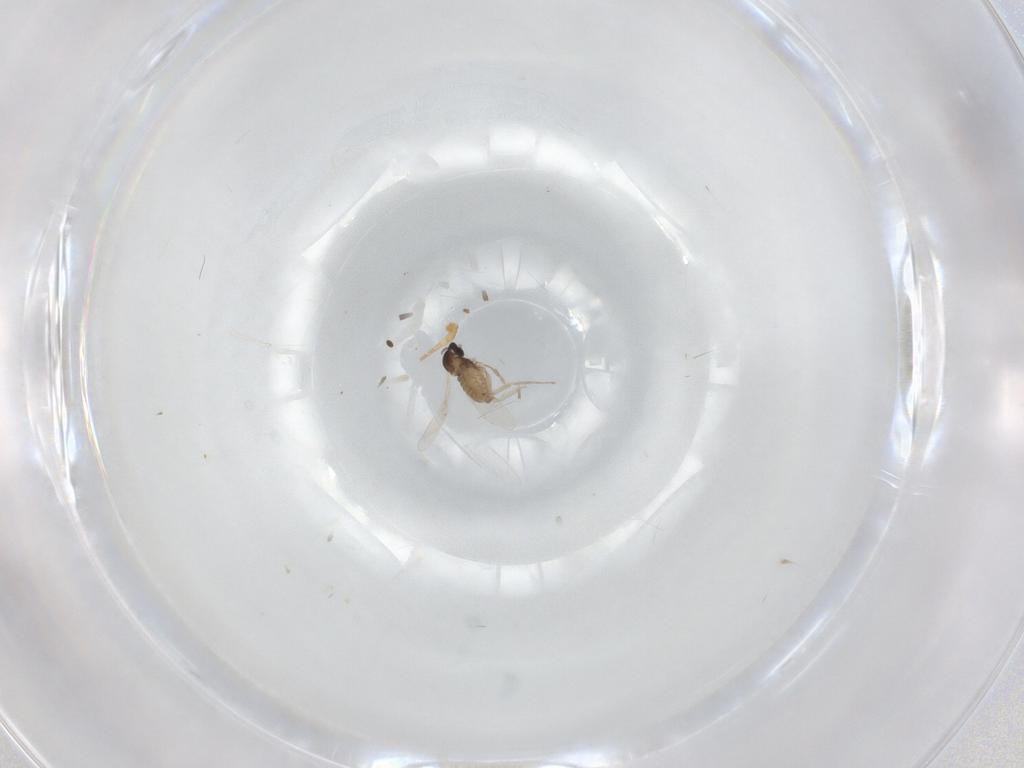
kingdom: Animalia
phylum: Arthropoda
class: Insecta
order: Diptera
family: Cecidomyiidae
